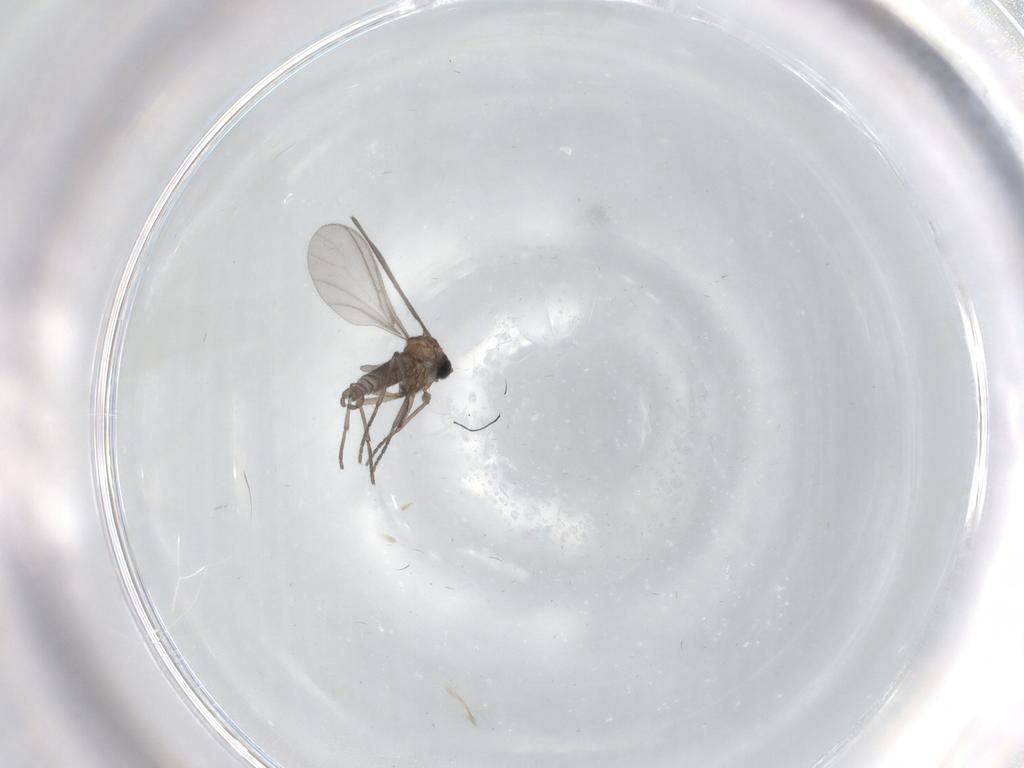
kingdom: Animalia
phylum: Arthropoda
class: Insecta
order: Diptera
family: Sciaridae
